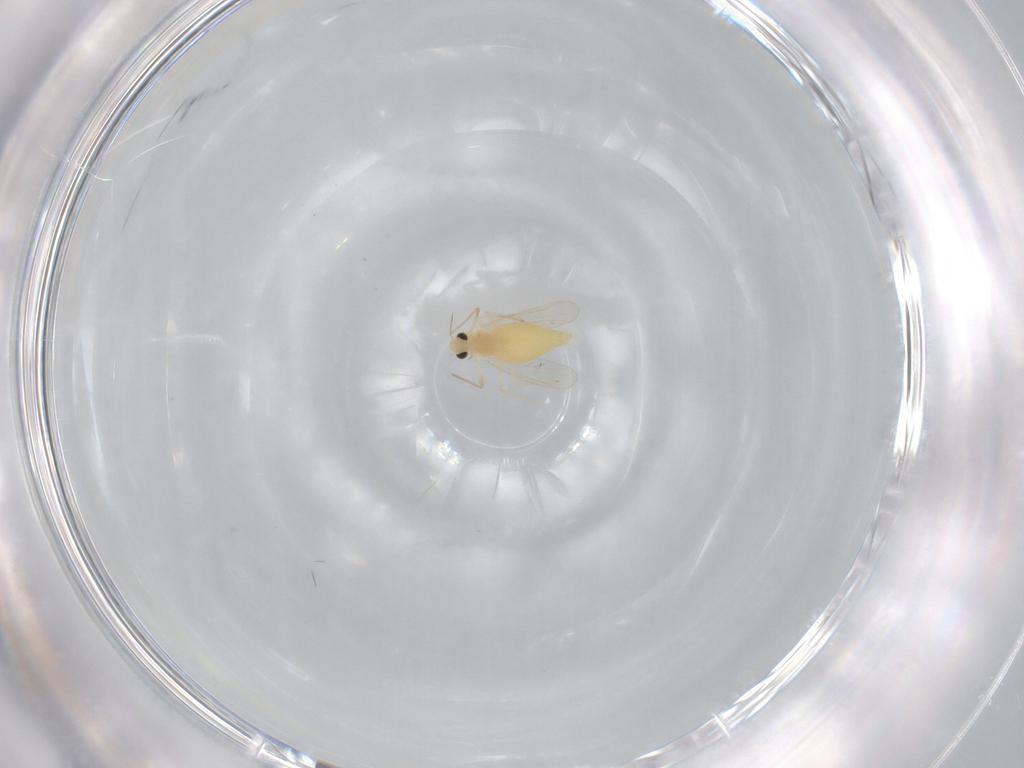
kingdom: Animalia
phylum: Arthropoda
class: Insecta
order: Diptera
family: Chironomidae
